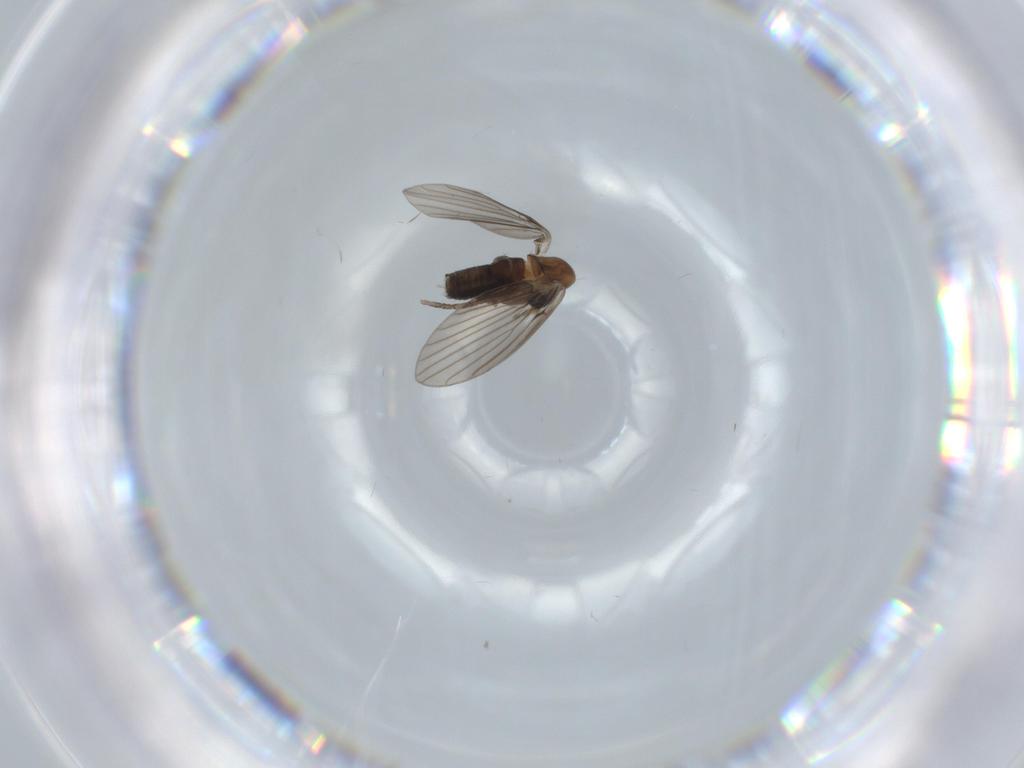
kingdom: Animalia
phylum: Arthropoda
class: Insecta
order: Diptera
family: Psychodidae
